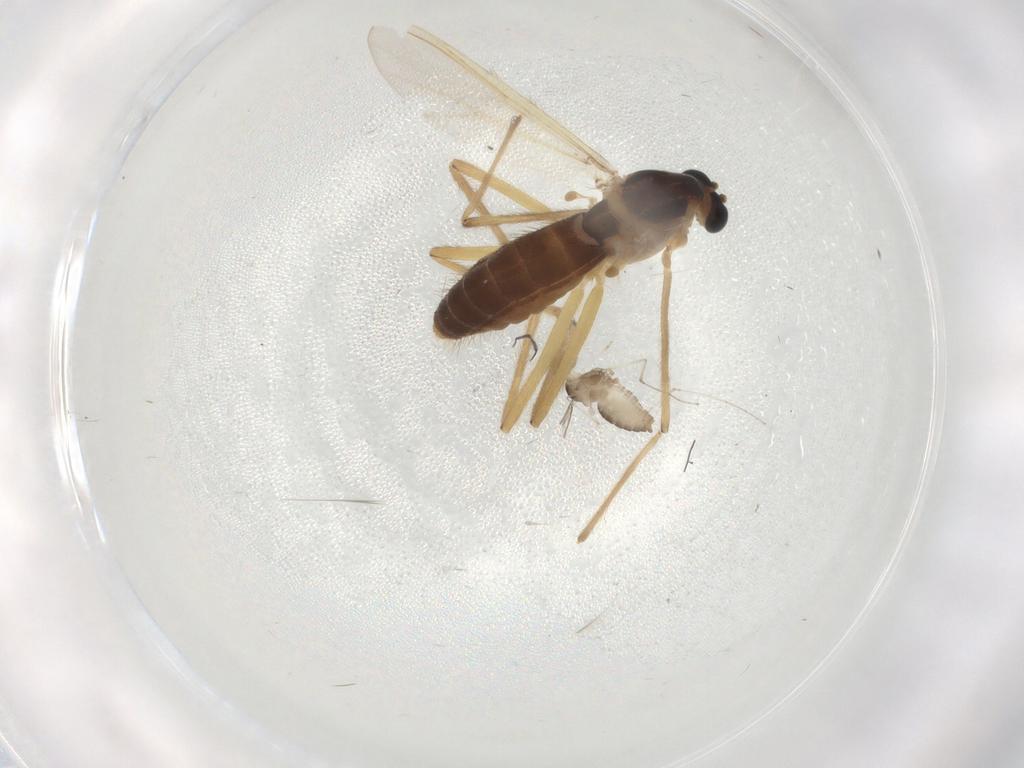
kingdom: Animalia
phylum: Arthropoda
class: Insecta
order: Diptera
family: Chironomidae
